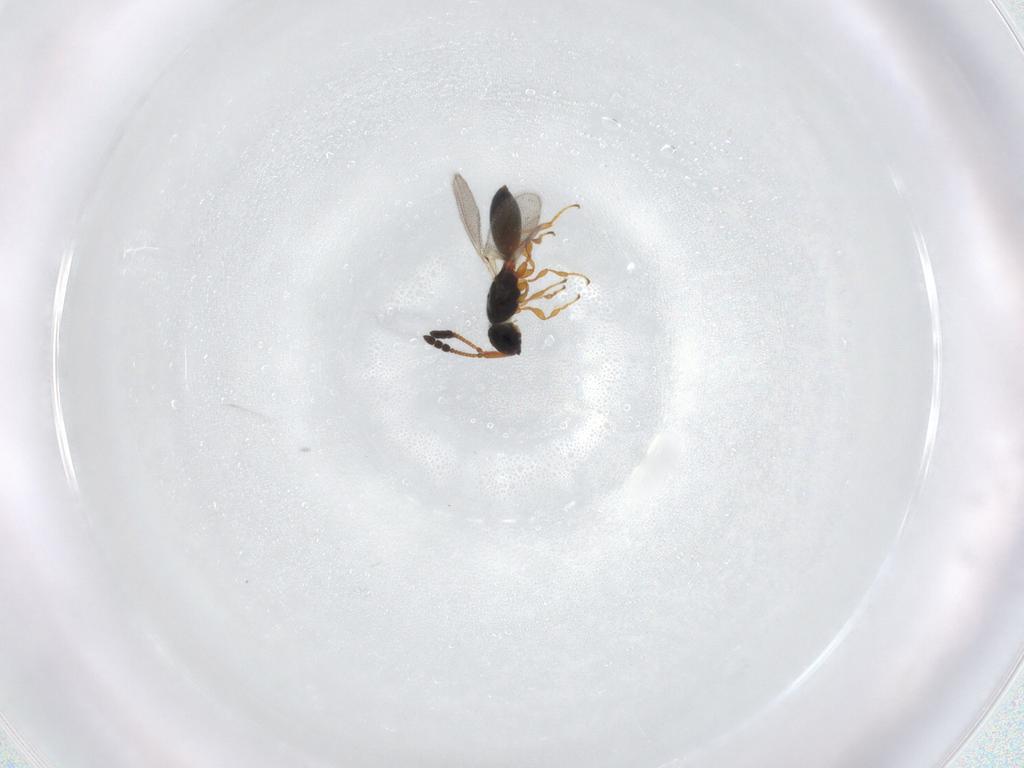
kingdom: Animalia
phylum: Arthropoda
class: Insecta
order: Hymenoptera
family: Diapriidae
